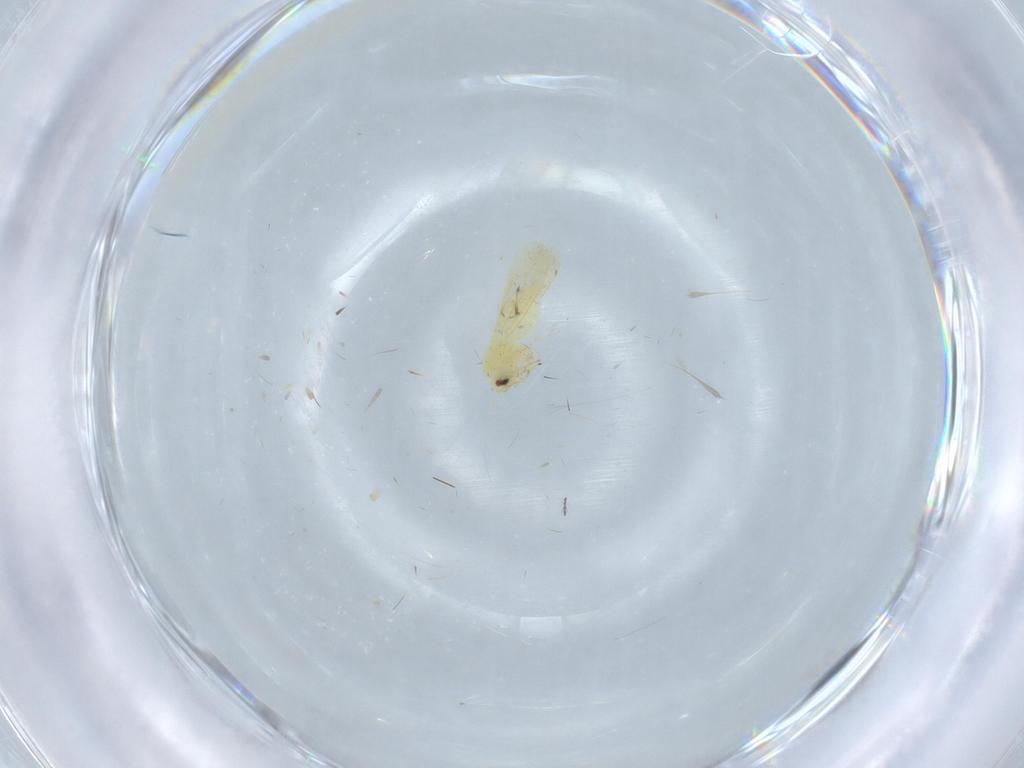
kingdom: Animalia
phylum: Arthropoda
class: Insecta
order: Hemiptera
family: Aleyrodidae
